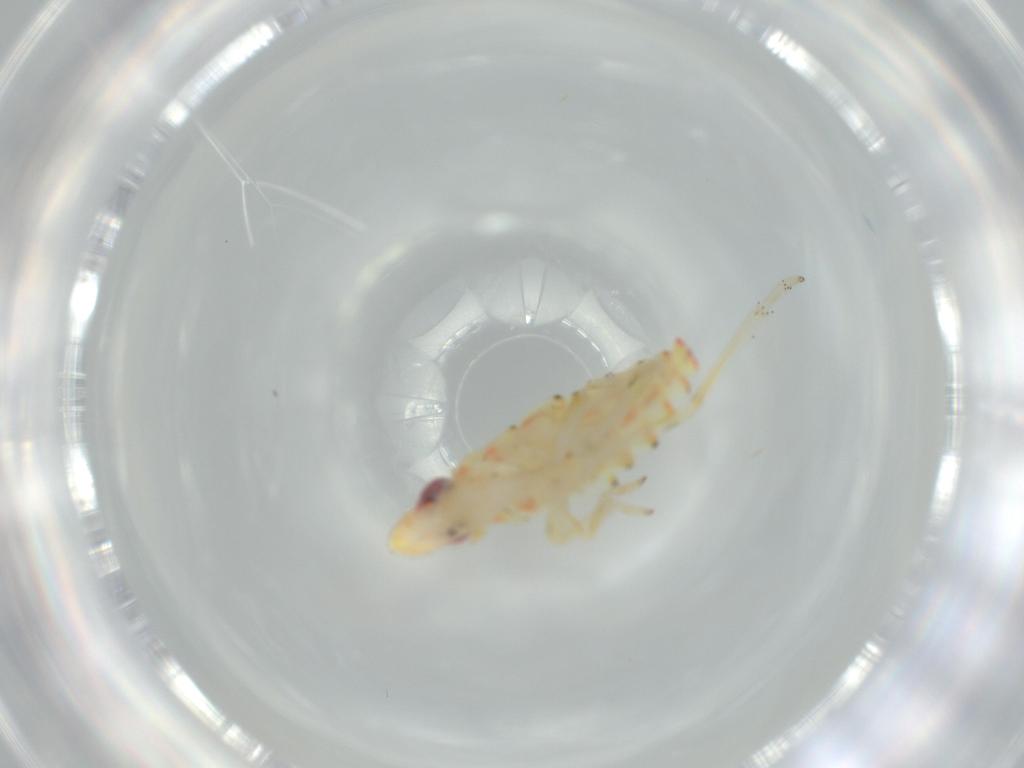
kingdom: Animalia
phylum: Arthropoda
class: Insecta
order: Hemiptera
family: Tropiduchidae
